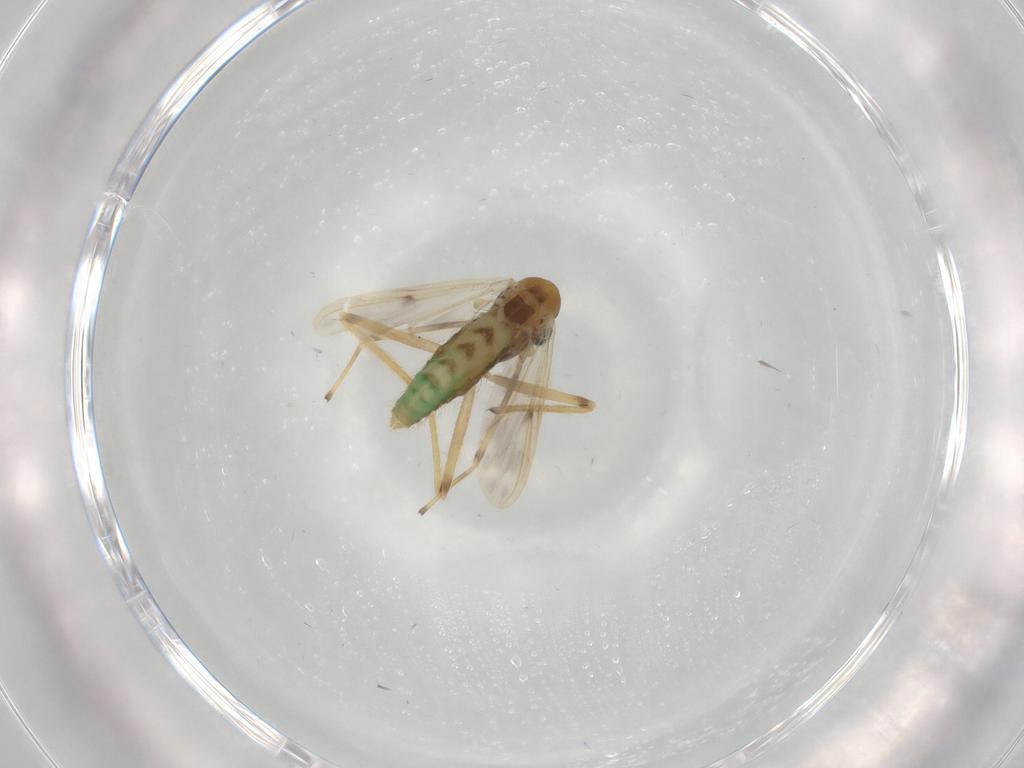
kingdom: Animalia
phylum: Arthropoda
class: Insecta
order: Diptera
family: Chironomidae
